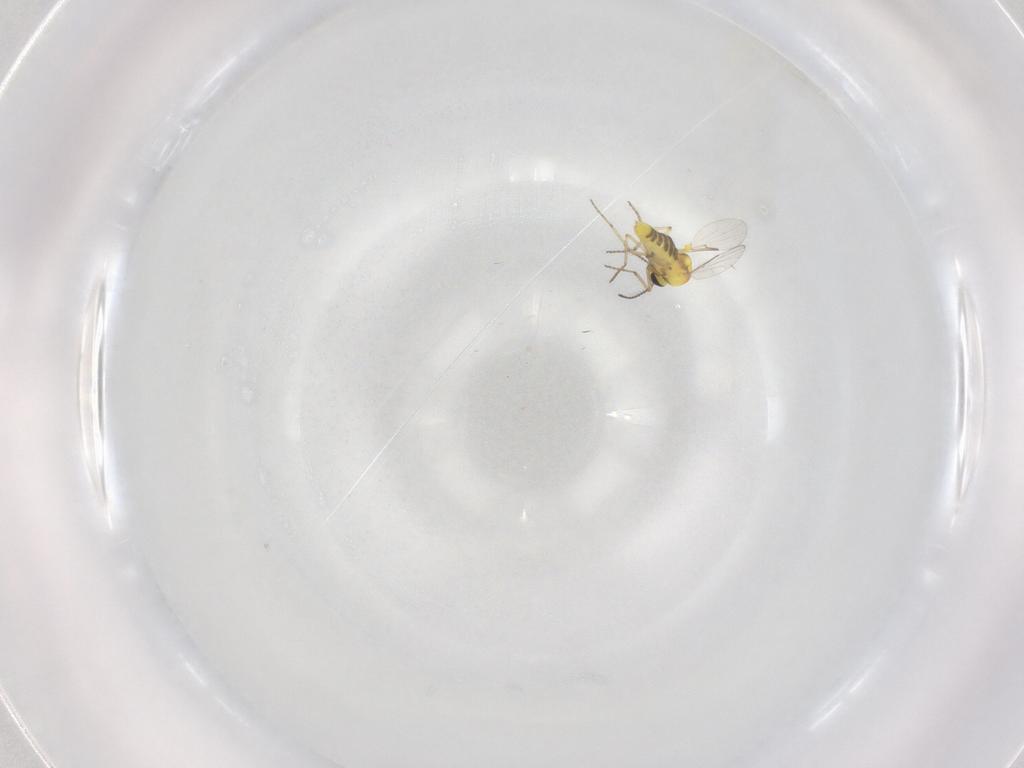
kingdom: Animalia
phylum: Arthropoda
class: Insecta
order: Diptera
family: Ceratopogonidae
